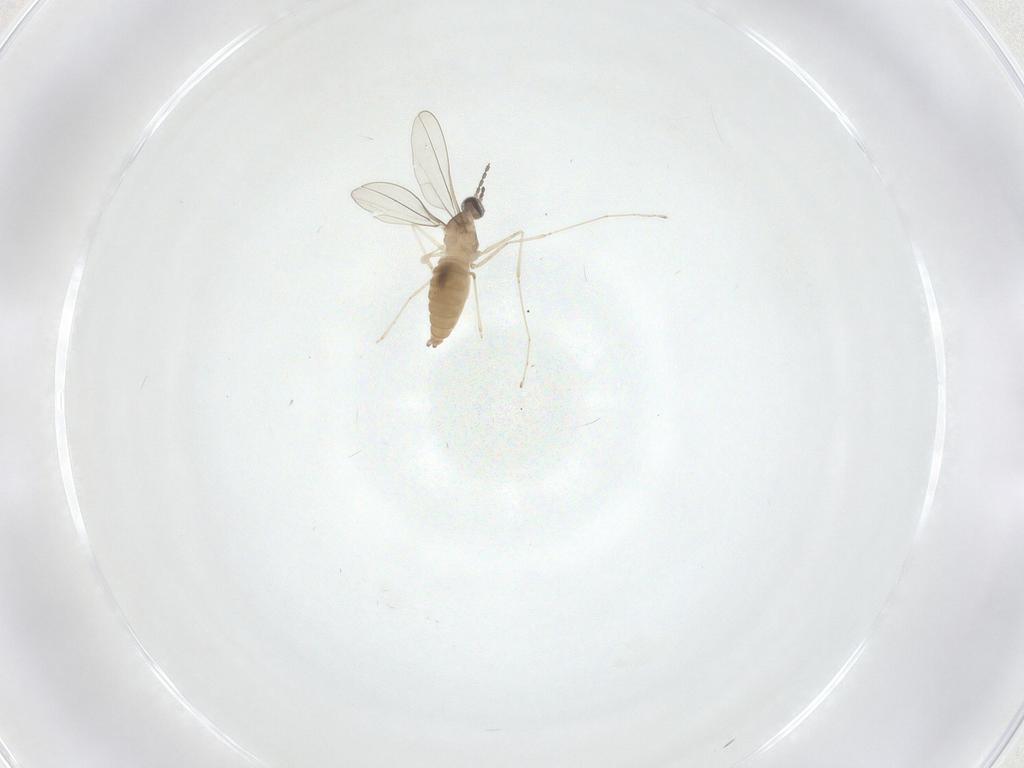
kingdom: Animalia
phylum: Arthropoda
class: Insecta
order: Diptera
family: Chironomidae
